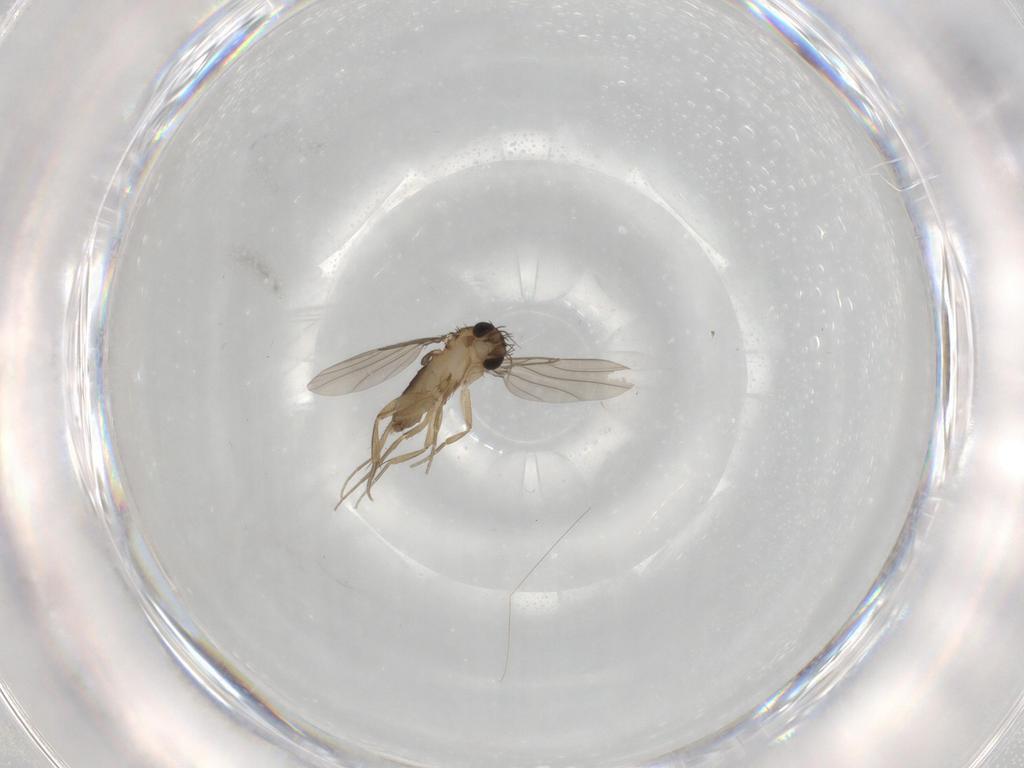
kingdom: Animalia
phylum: Arthropoda
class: Insecta
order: Diptera
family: Phoridae
